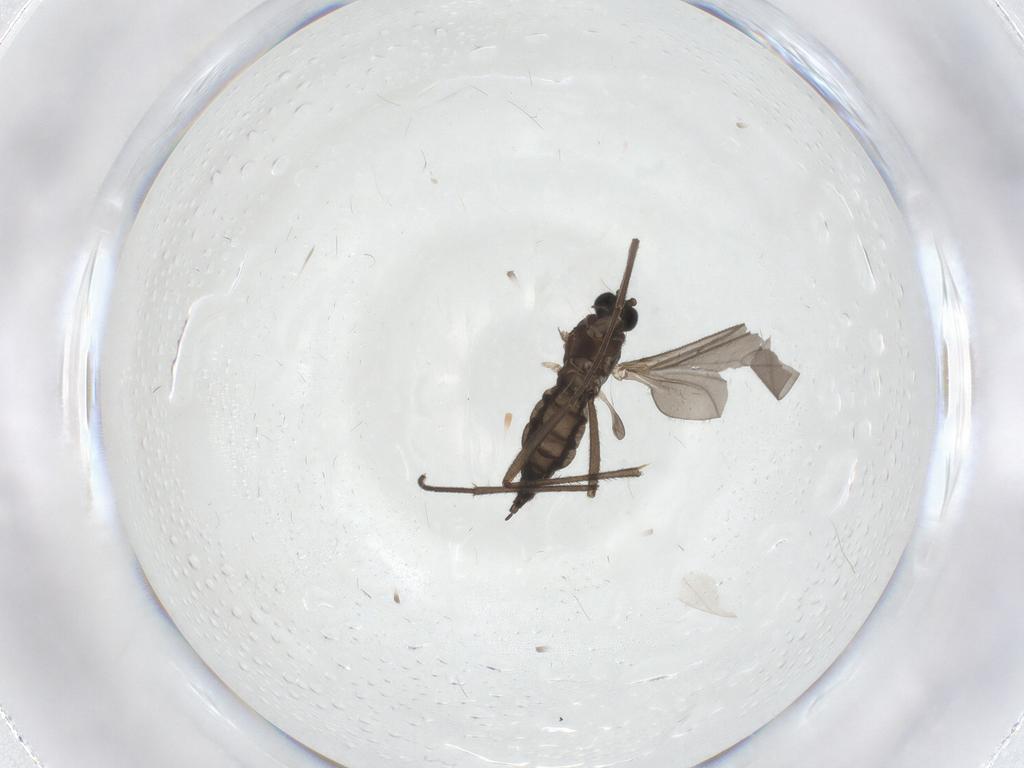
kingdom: Animalia
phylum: Arthropoda
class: Insecta
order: Diptera
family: Sciaridae
